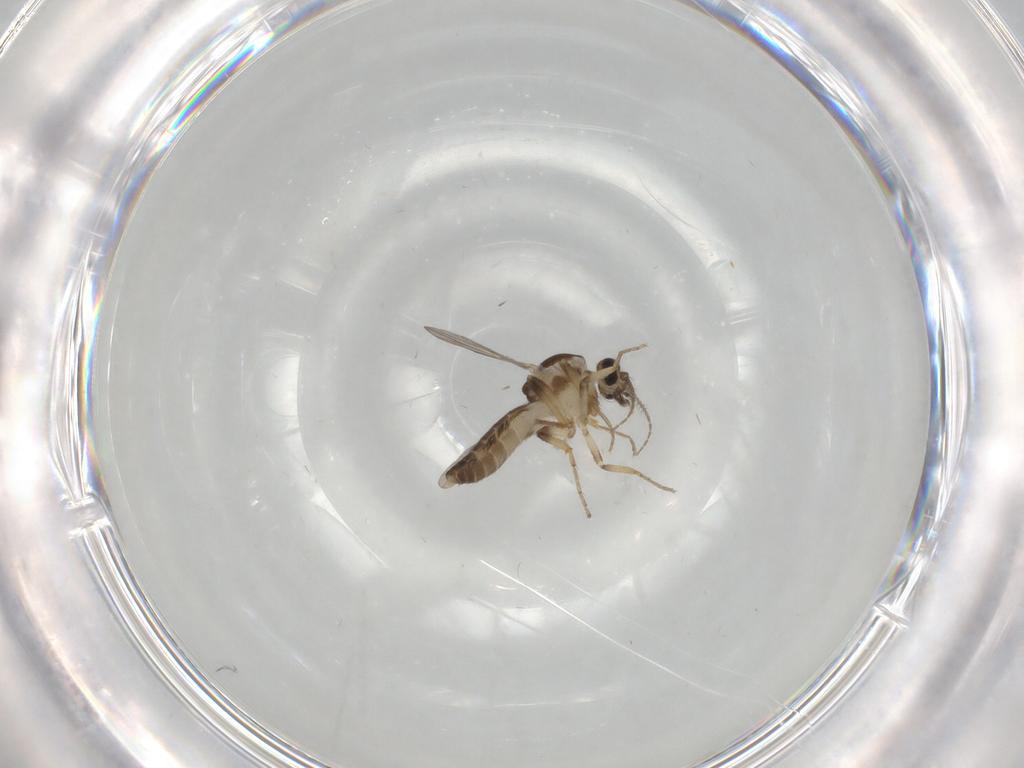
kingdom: Animalia
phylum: Arthropoda
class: Insecta
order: Diptera
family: Ceratopogonidae
